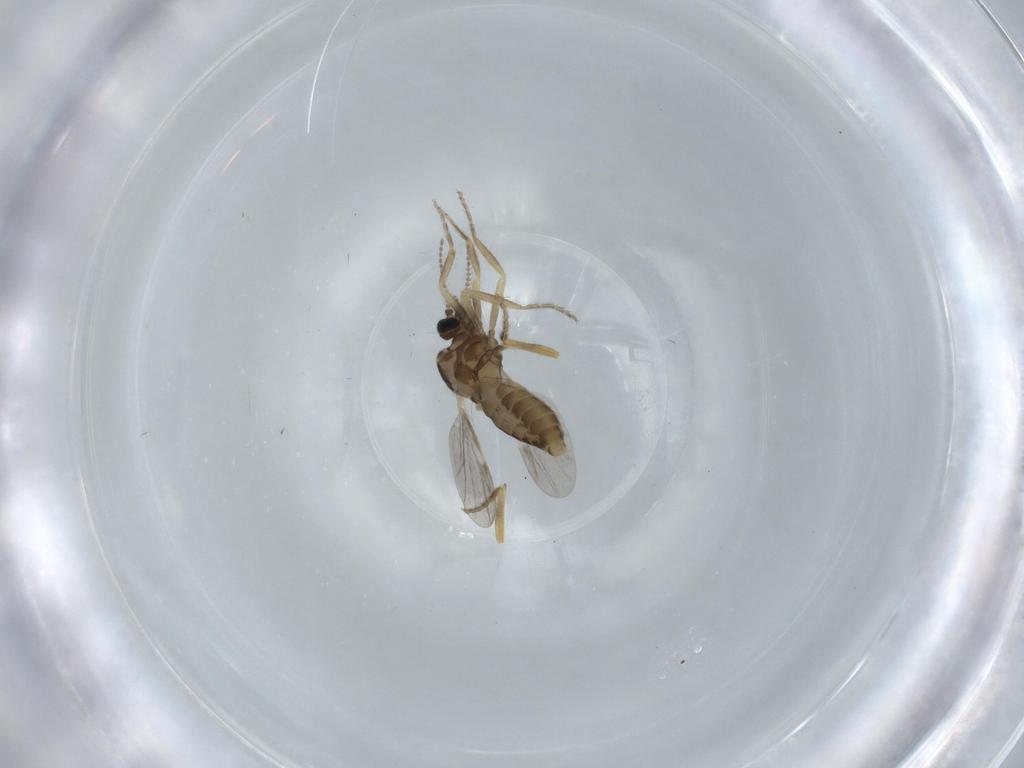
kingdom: Animalia
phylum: Arthropoda
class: Insecta
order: Diptera
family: Ceratopogonidae
